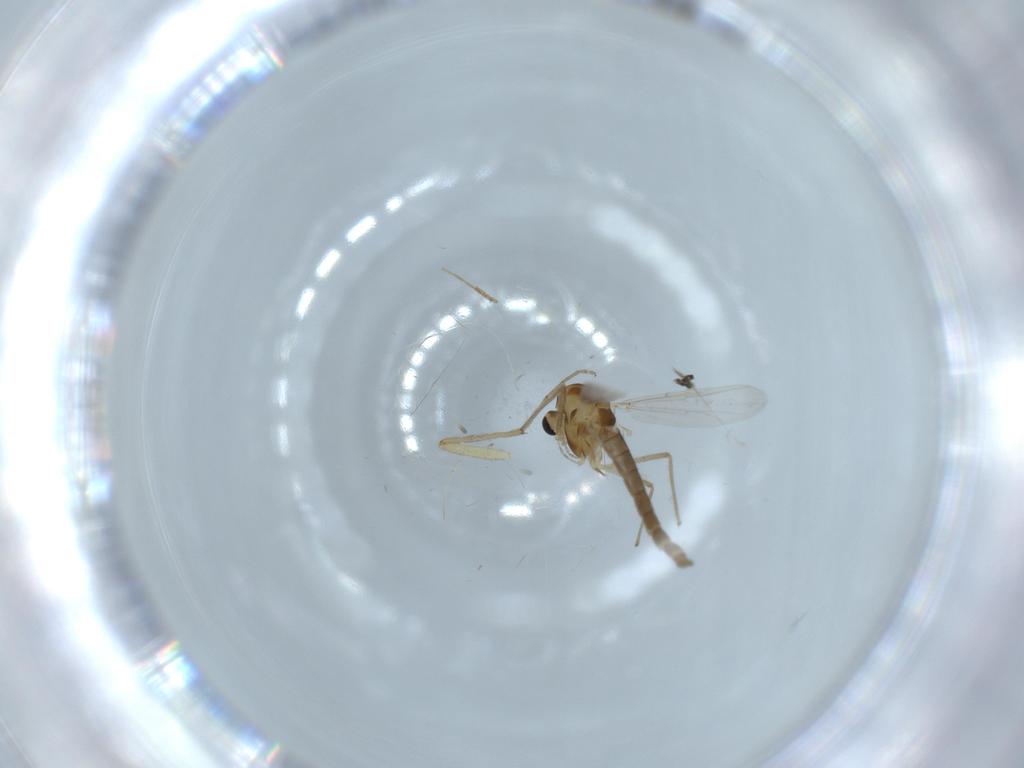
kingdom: Animalia
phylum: Arthropoda
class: Insecta
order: Diptera
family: Chironomidae
